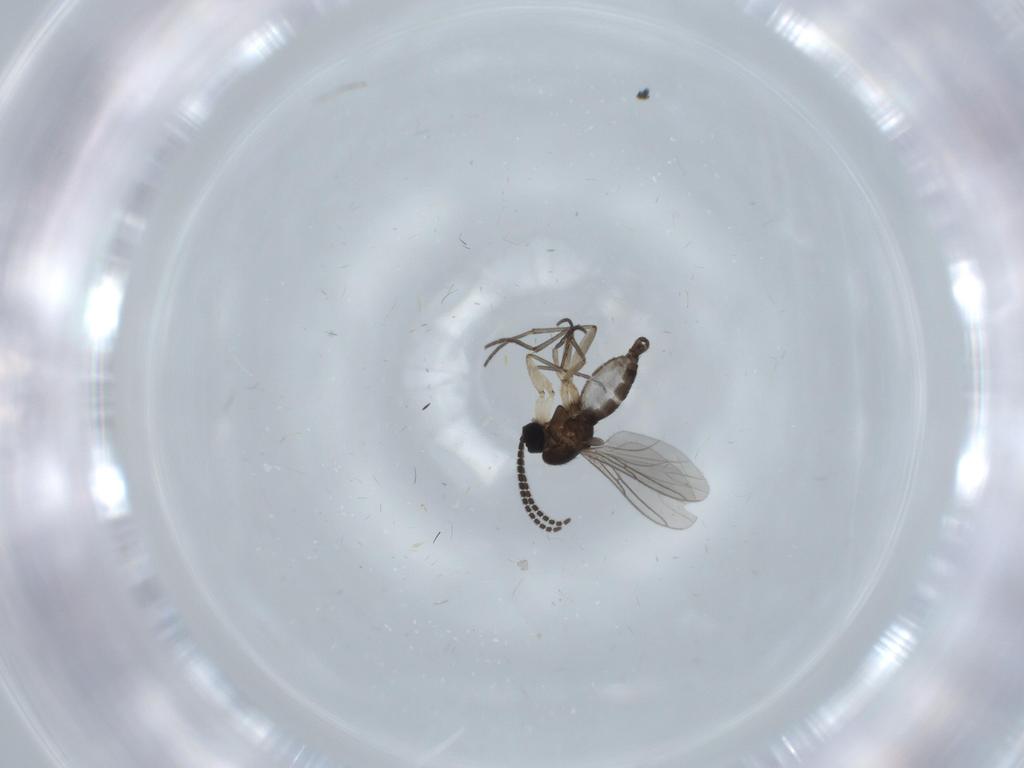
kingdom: Animalia
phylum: Arthropoda
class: Insecta
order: Diptera
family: Sciaridae
